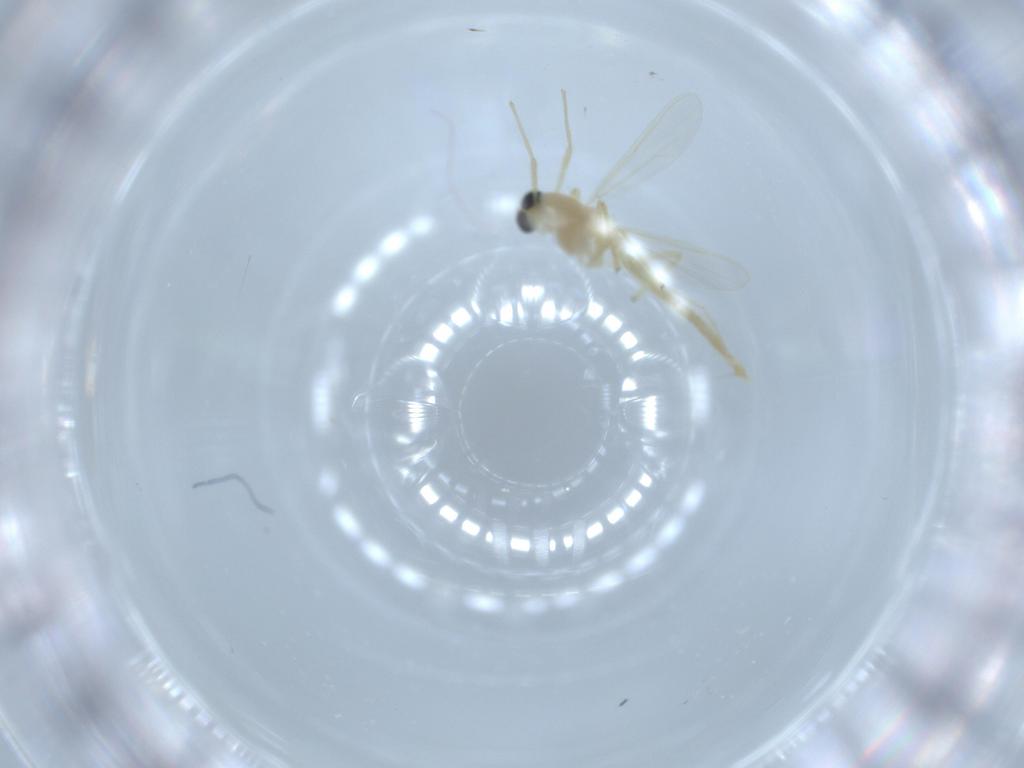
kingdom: Animalia
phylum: Arthropoda
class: Insecta
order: Diptera
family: Chironomidae
